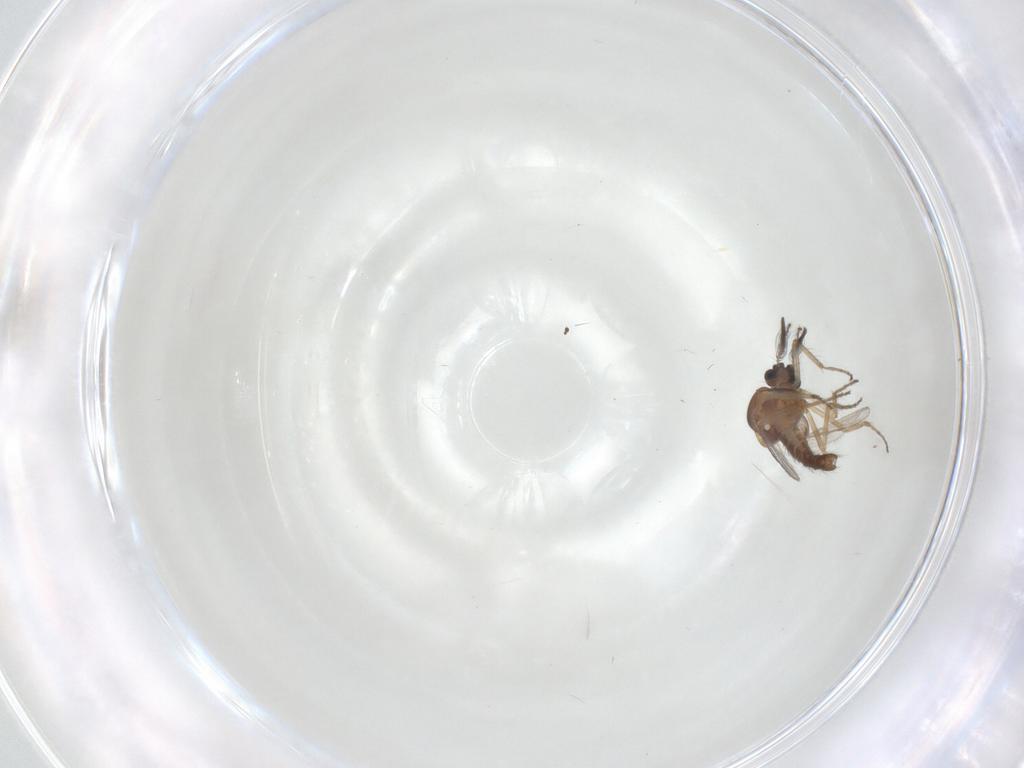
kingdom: Animalia
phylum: Arthropoda
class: Insecta
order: Diptera
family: Ceratopogonidae
